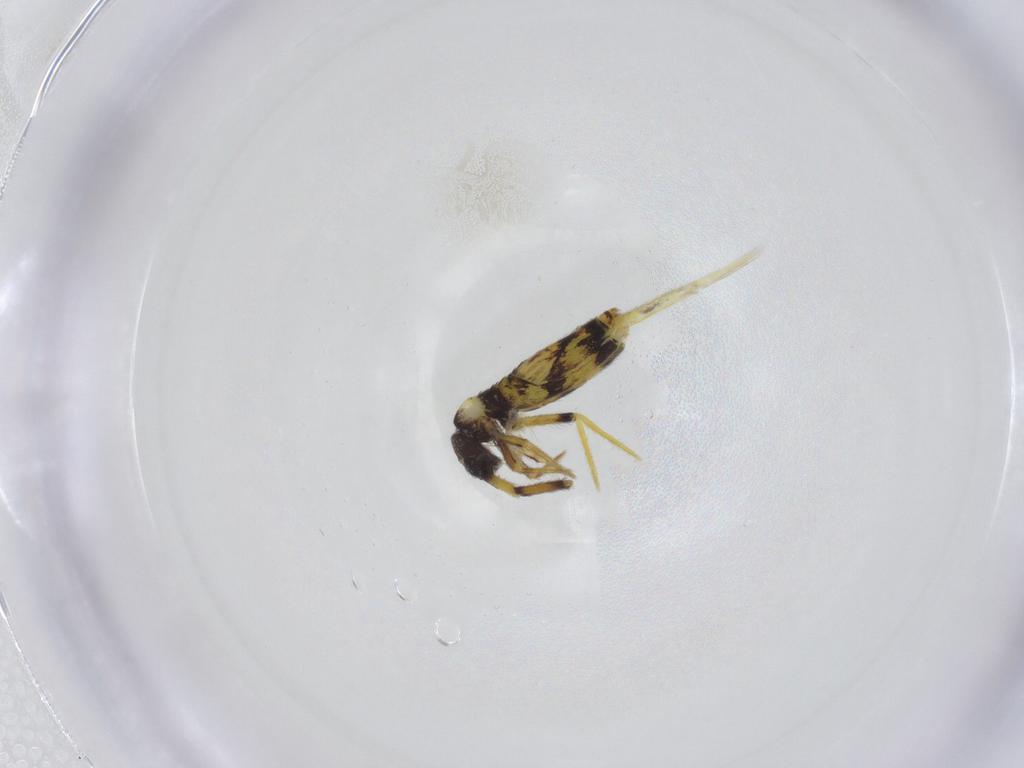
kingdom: Animalia
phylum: Arthropoda
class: Collembola
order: Entomobryomorpha
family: Entomobryidae
